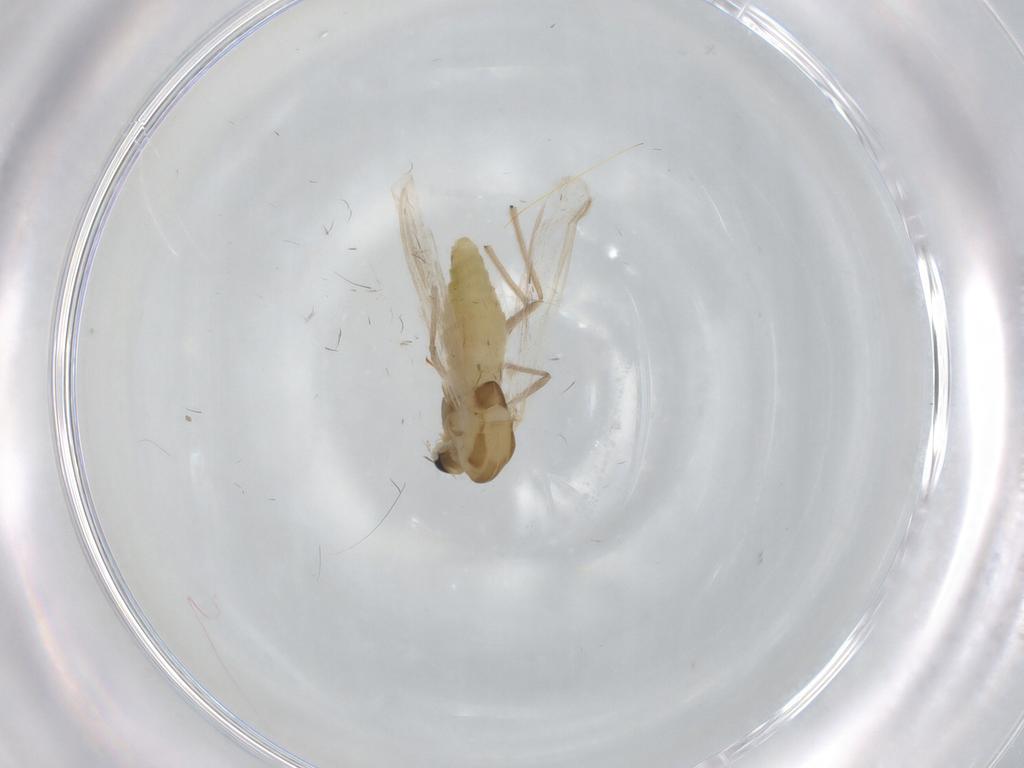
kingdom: Animalia
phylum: Arthropoda
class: Insecta
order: Diptera
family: Chironomidae
